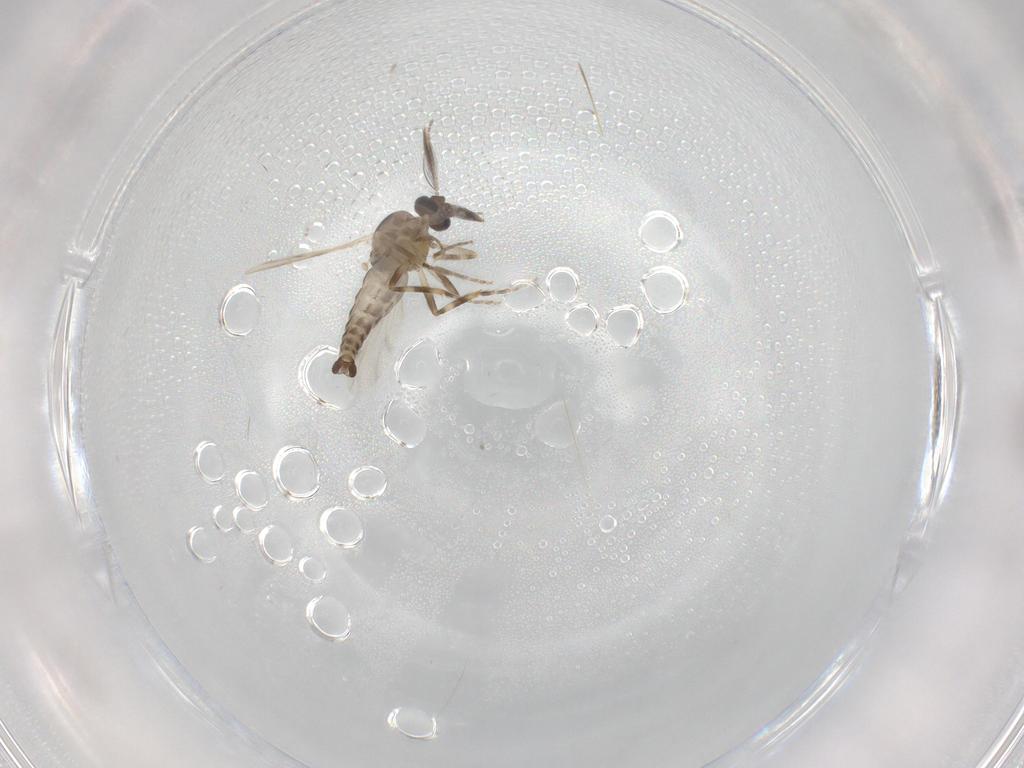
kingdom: Animalia
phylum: Arthropoda
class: Insecta
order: Diptera
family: Ceratopogonidae
